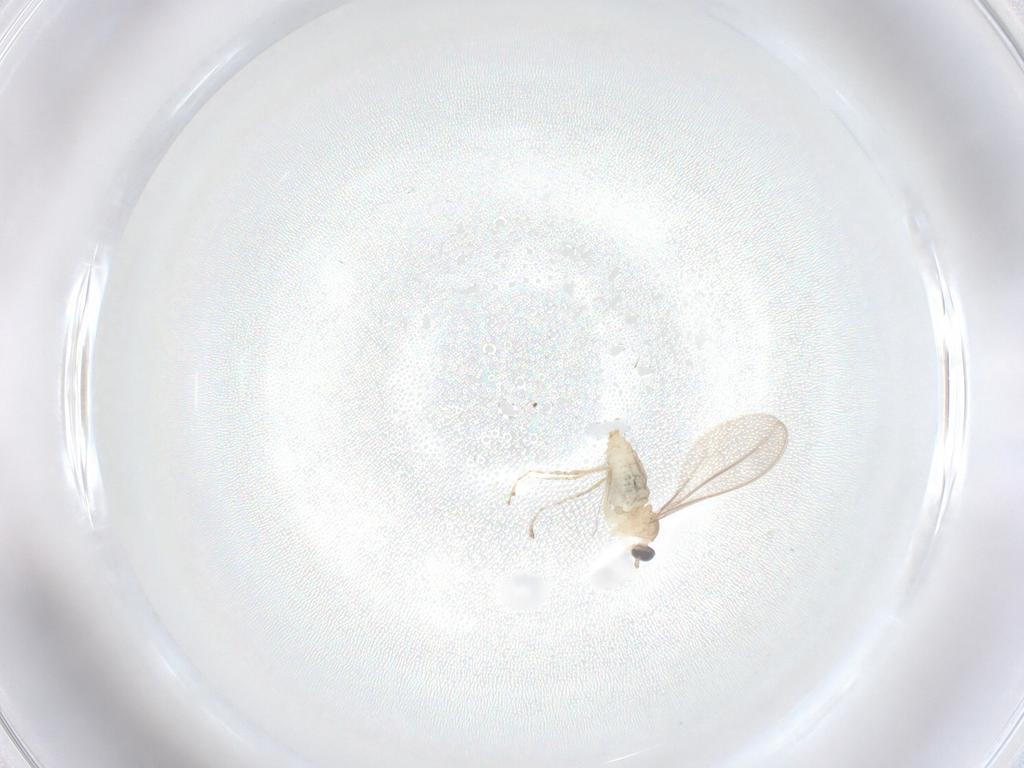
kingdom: Animalia
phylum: Arthropoda
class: Insecta
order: Diptera
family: Cecidomyiidae
